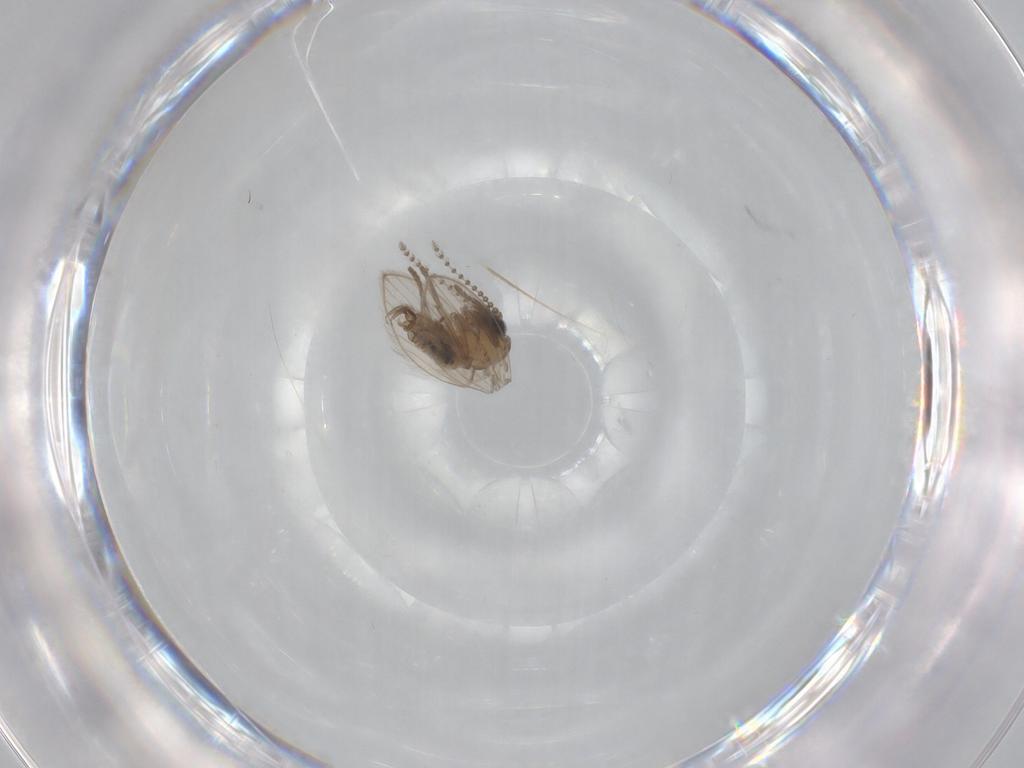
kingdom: Animalia
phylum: Arthropoda
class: Insecta
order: Diptera
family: Psychodidae
